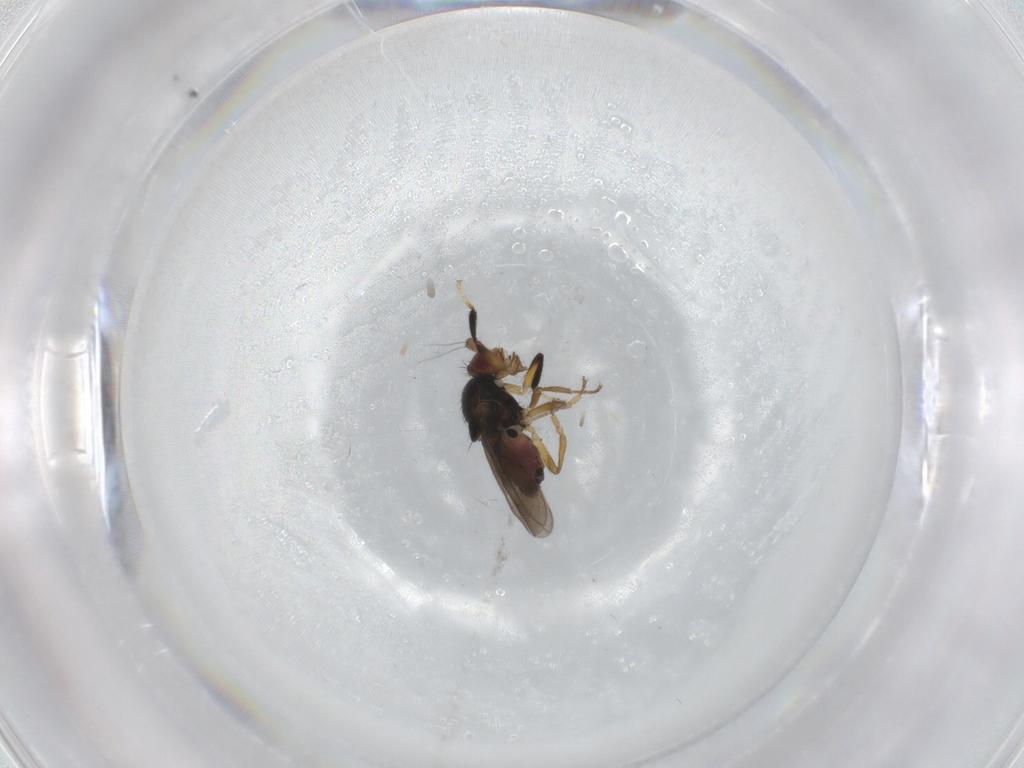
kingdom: Animalia
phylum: Arthropoda
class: Insecta
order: Diptera
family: Sphaeroceridae
